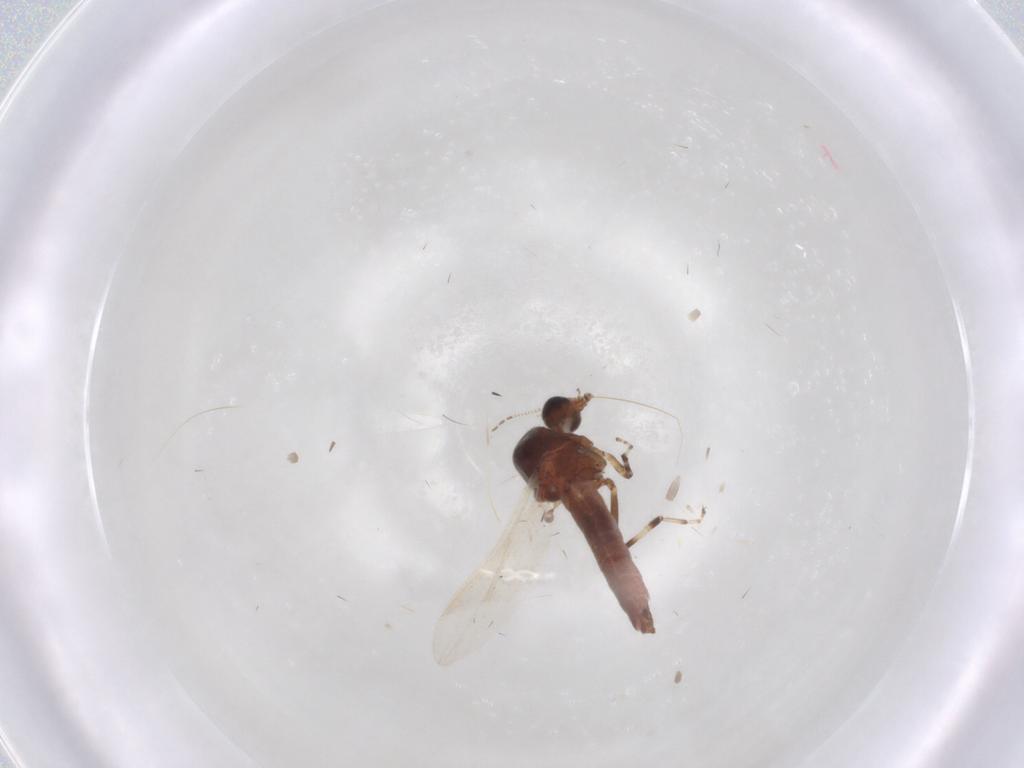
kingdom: Animalia
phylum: Arthropoda
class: Insecta
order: Diptera
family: Ceratopogonidae
